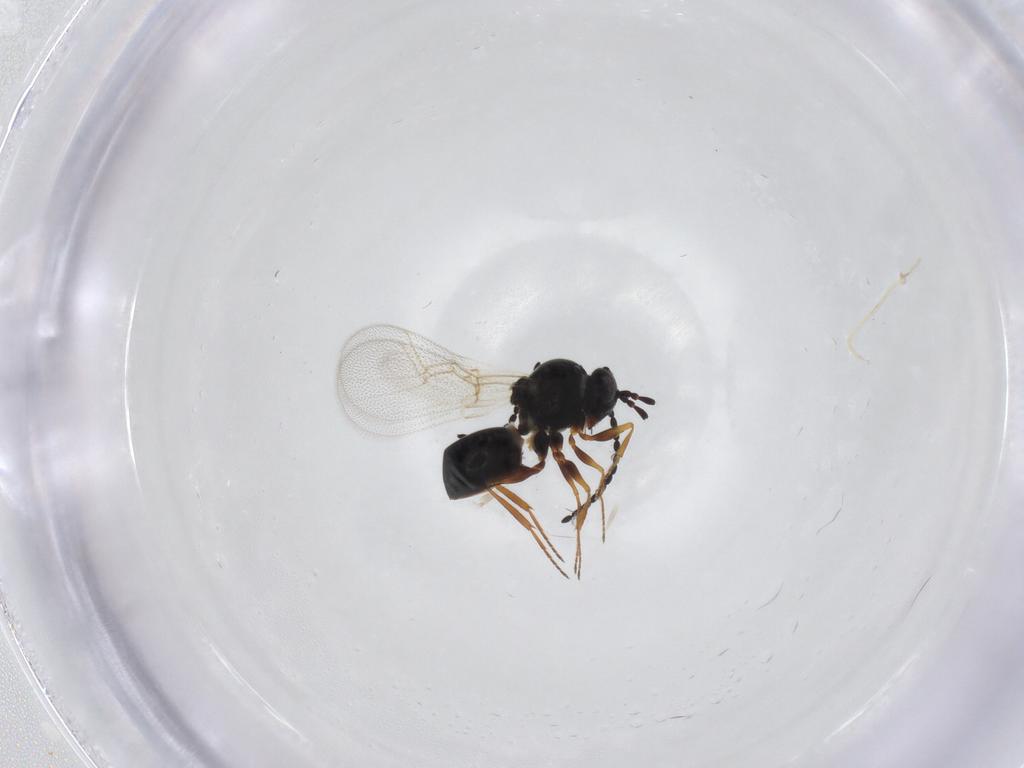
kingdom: Animalia
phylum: Arthropoda
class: Insecta
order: Hymenoptera
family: Figitidae
